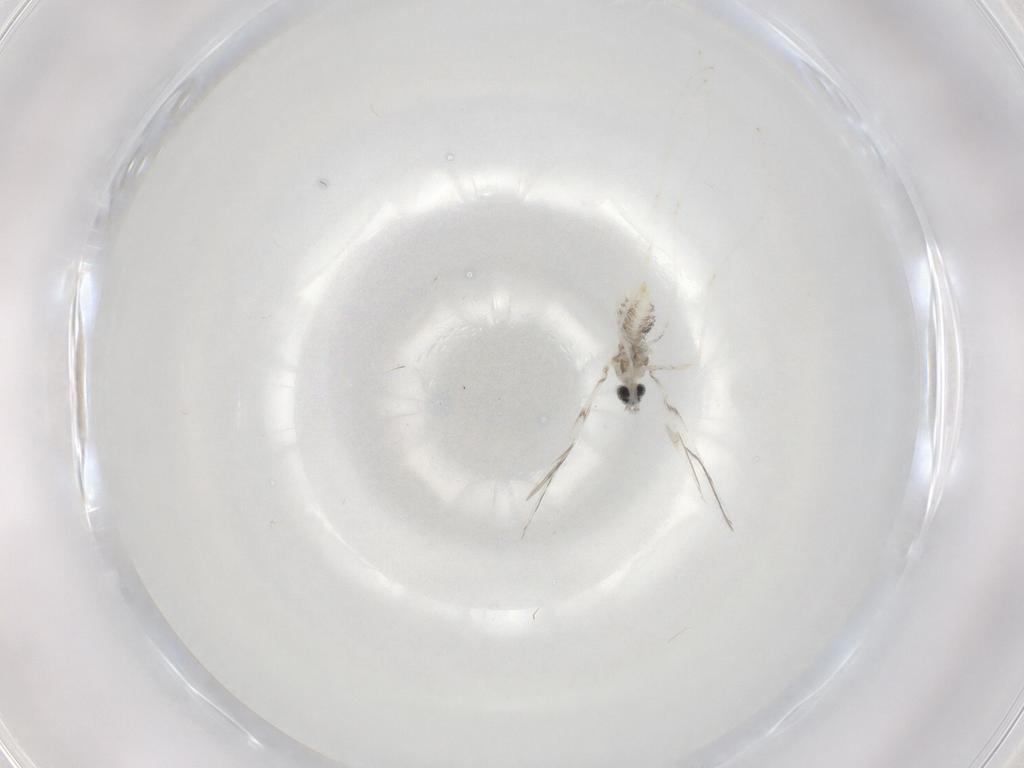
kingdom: Animalia
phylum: Arthropoda
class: Insecta
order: Diptera
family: Cecidomyiidae
